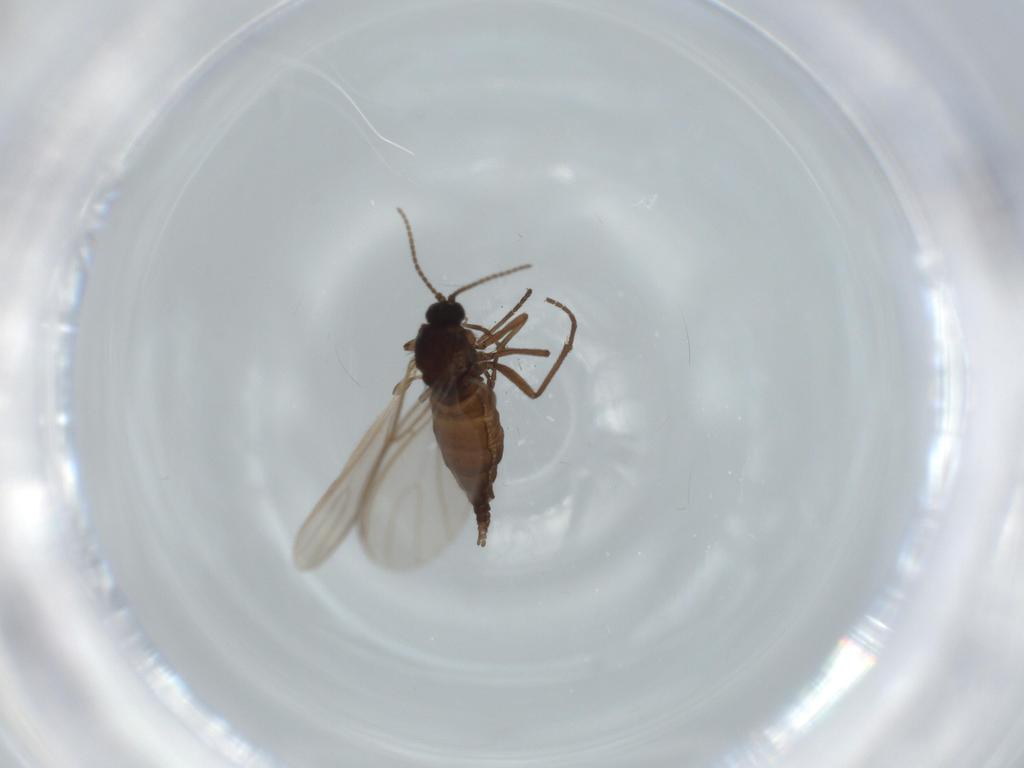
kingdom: Animalia
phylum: Arthropoda
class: Insecta
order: Diptera
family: Sciaridae
